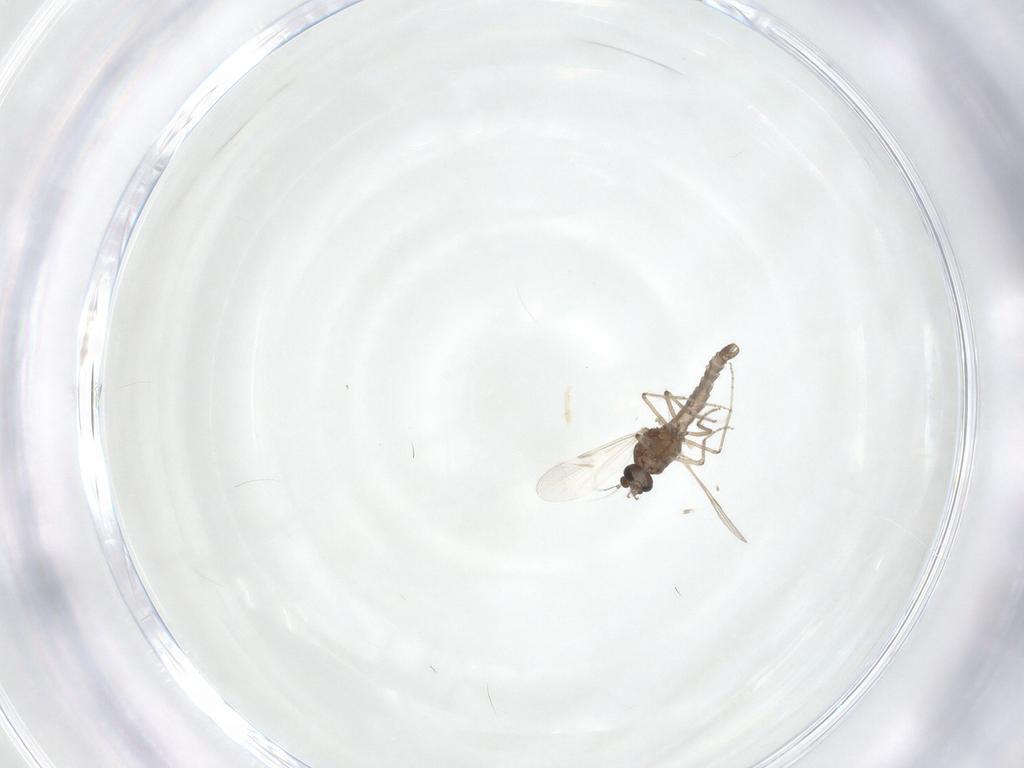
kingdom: Animalia
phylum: Arthropoda
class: Insecta
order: Diptera
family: Ceratopogonidae
